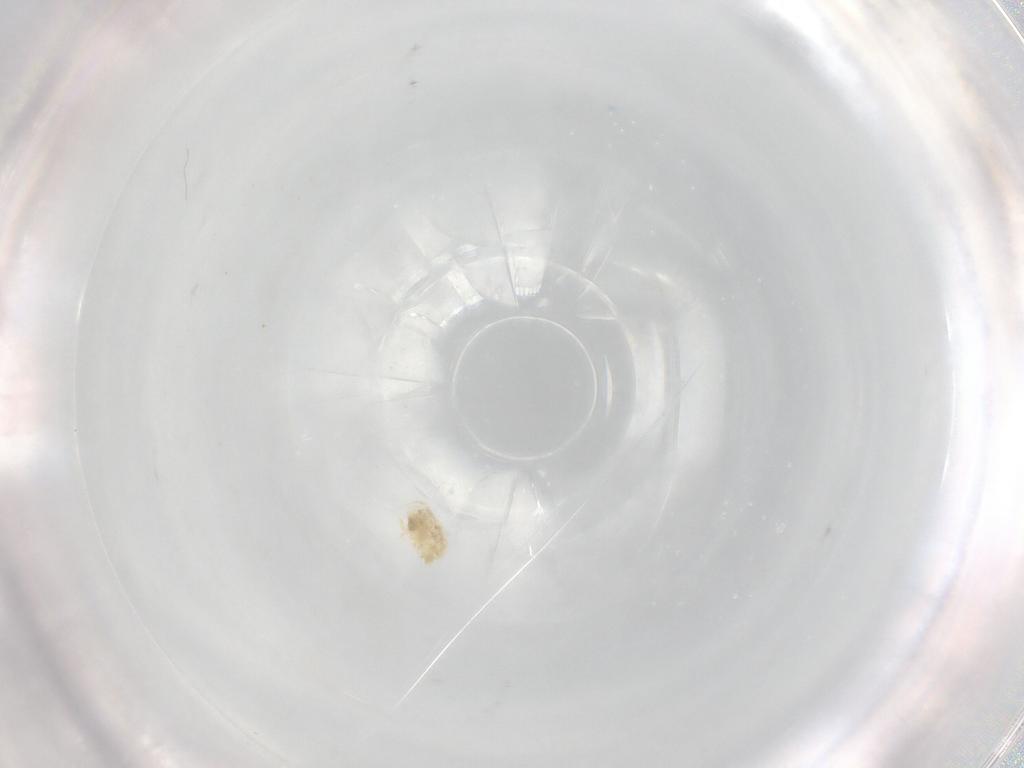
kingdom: Animalia
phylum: Arthropoda
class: Arachnida
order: Trombidiformes
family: Eupodidae
